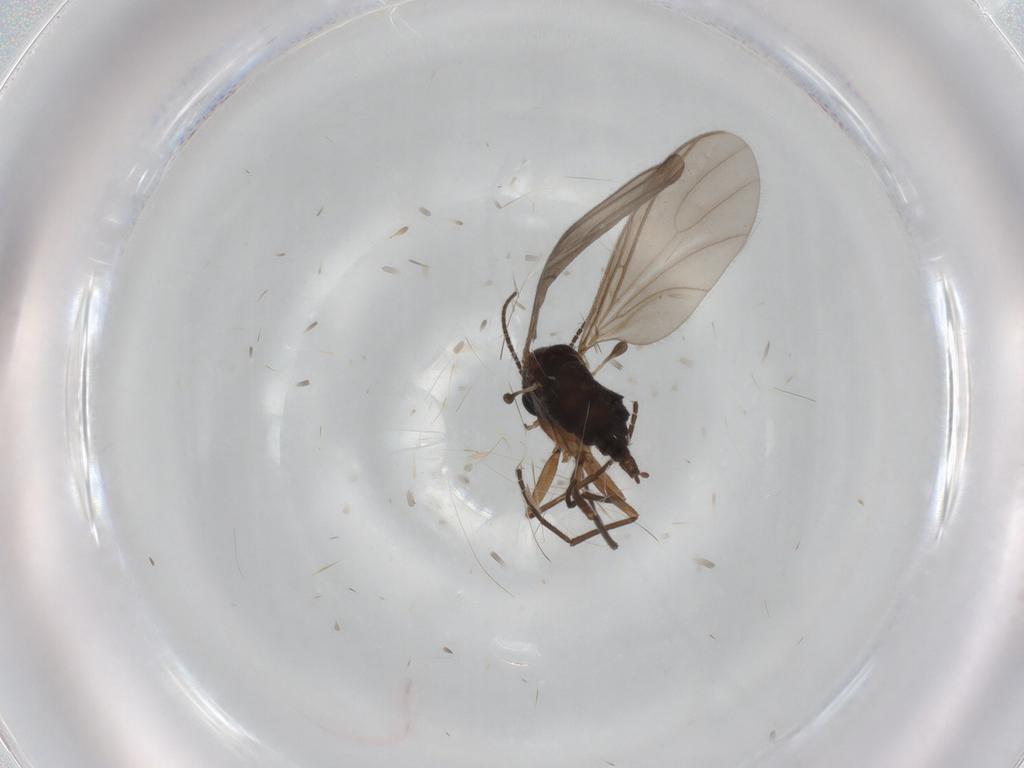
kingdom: Animalia
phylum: Arthropoda
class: Insecta
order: Diptera
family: Sciaridae
